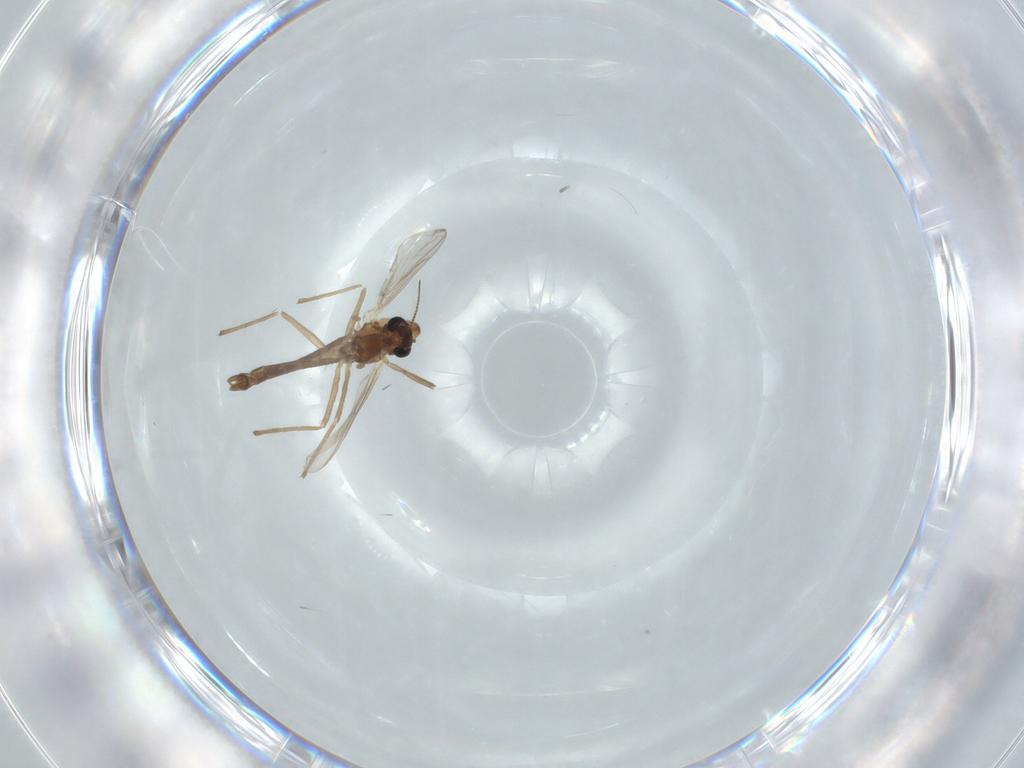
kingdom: Animalia
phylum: Arthropoda
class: Insecta
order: Diptera
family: Chironomidae
